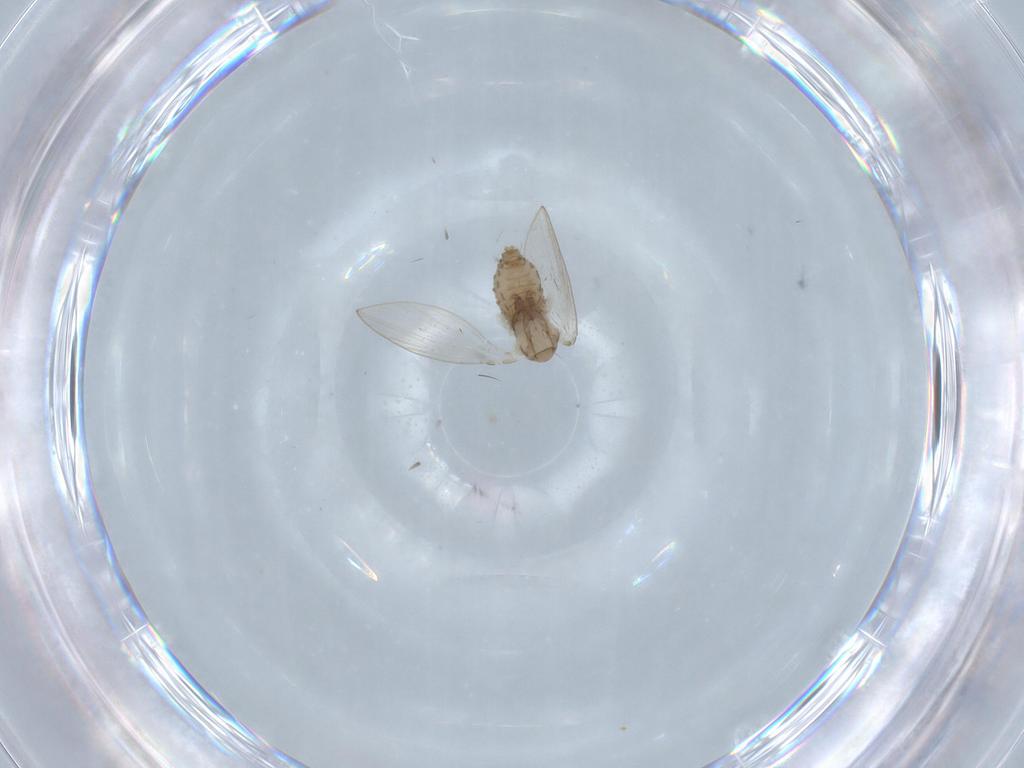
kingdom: Animalia
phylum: Arthropoda
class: Insecta
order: Diptera
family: Psychodidae
